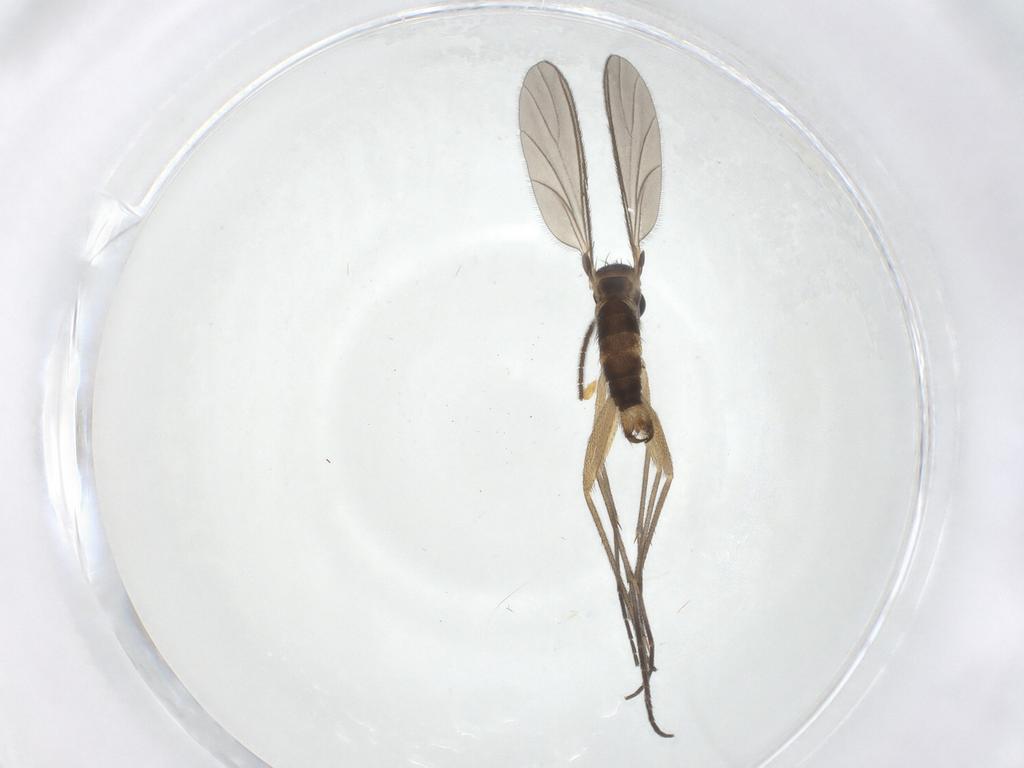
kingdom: Animalia
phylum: Arthropoda
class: Insecta
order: Diptera
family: Sciaridae
